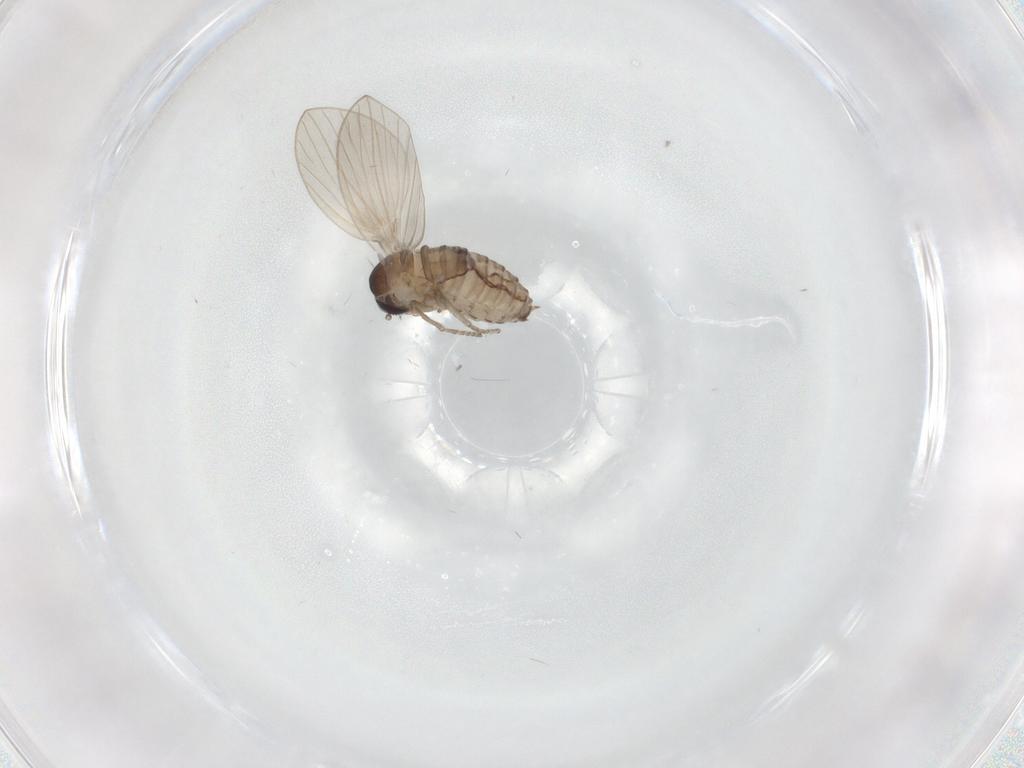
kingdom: Animalia
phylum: Arthropoda
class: Insecta
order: Diptera
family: Psychodidae
